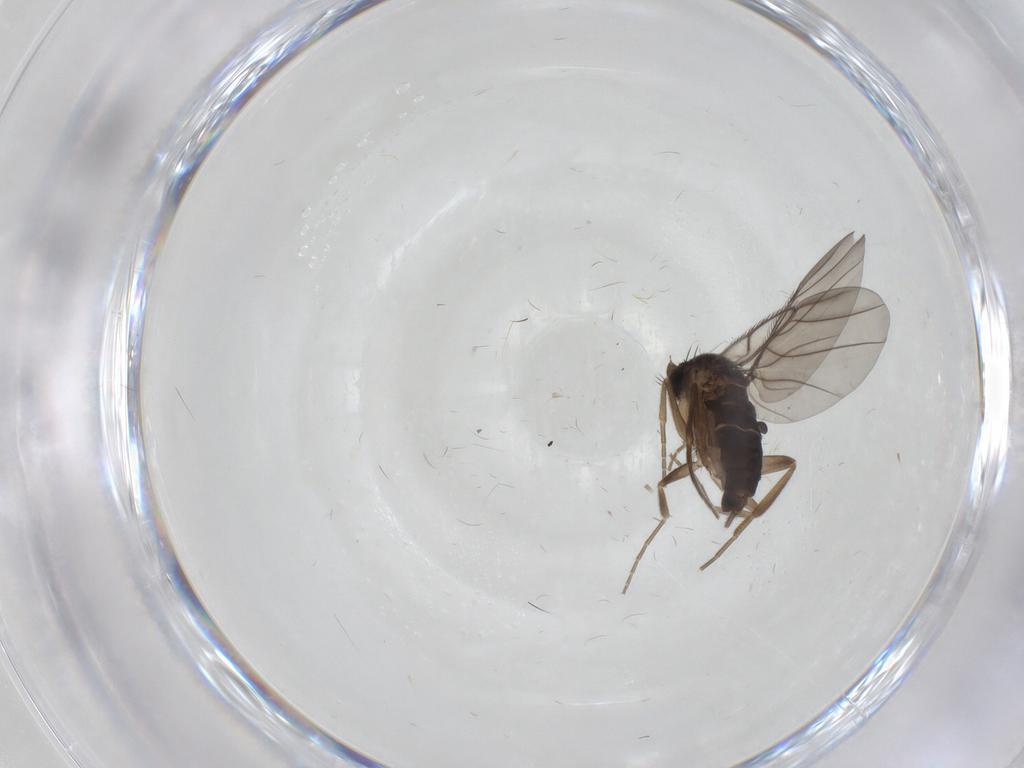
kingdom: Animalia
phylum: Arthropoda
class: Insecta
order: Diptera
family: Phoridae
